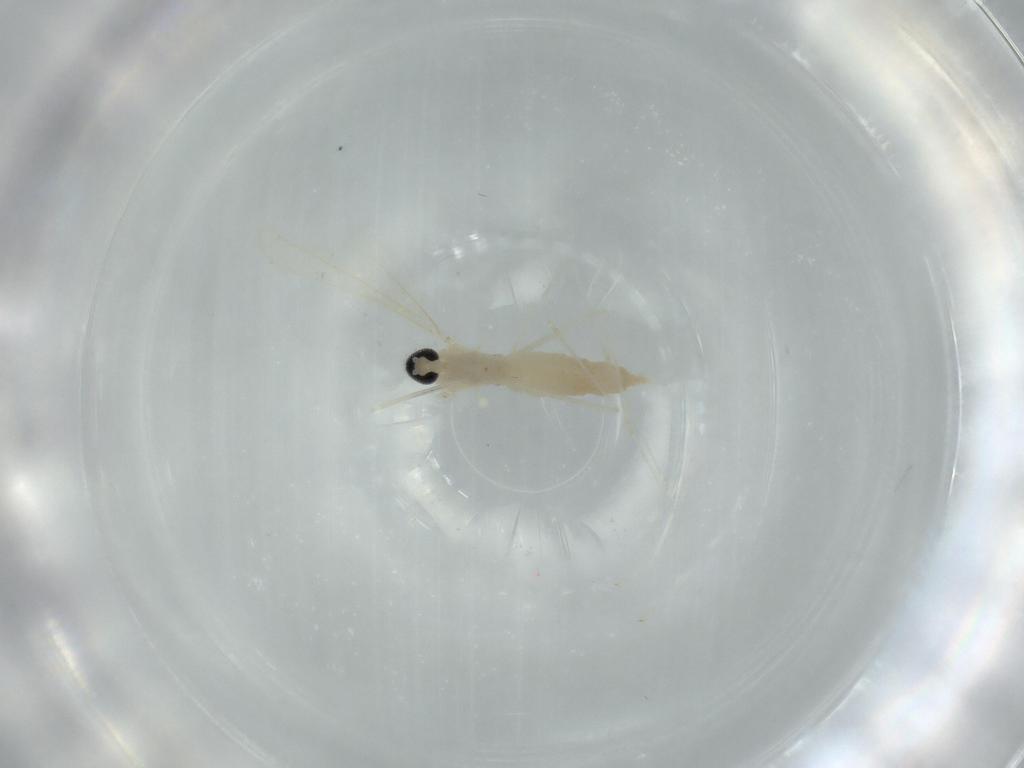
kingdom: Animalia
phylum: Arthropoda
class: Insecta
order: Diptera
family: Cecidomyiidae
